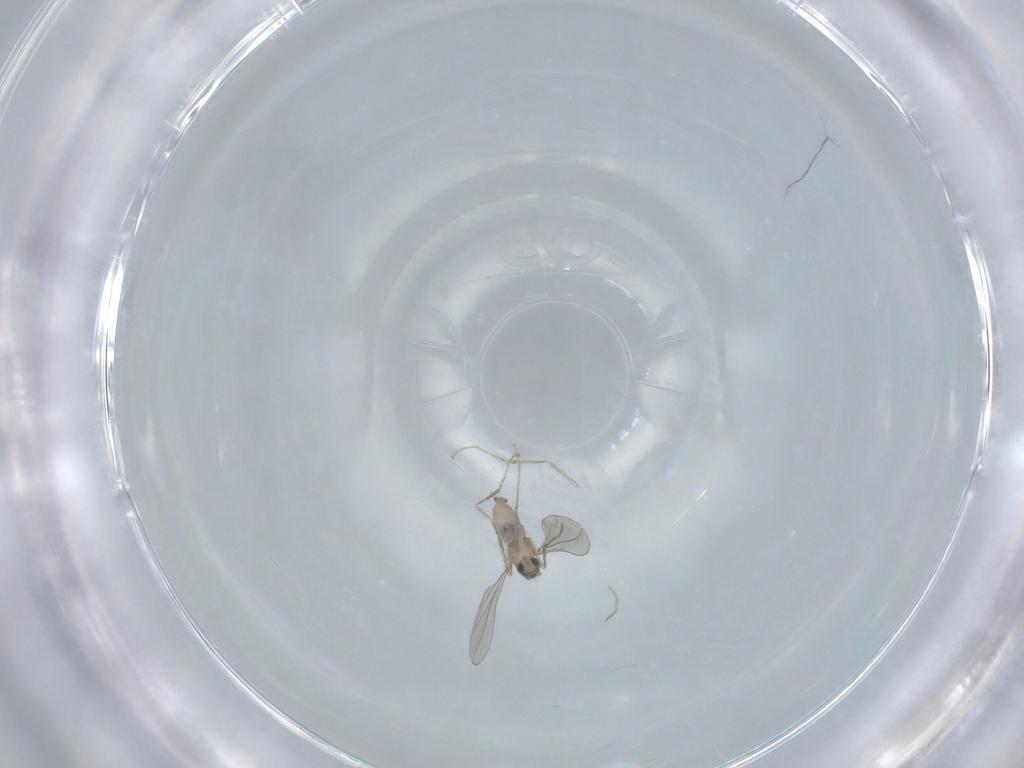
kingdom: Animalia
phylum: Arthropoda
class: Insecta
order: Diptera
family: Cecidomyiidae
